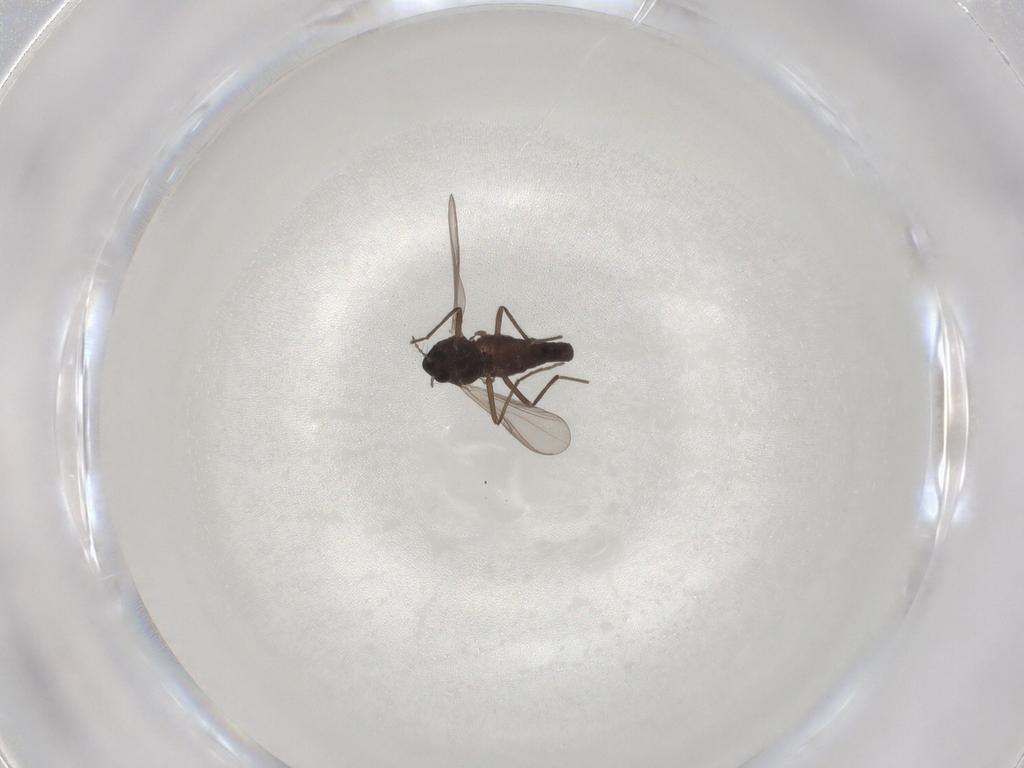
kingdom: Animalia
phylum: Arthropoda
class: Insecta
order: Diptera
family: Chironomidae
